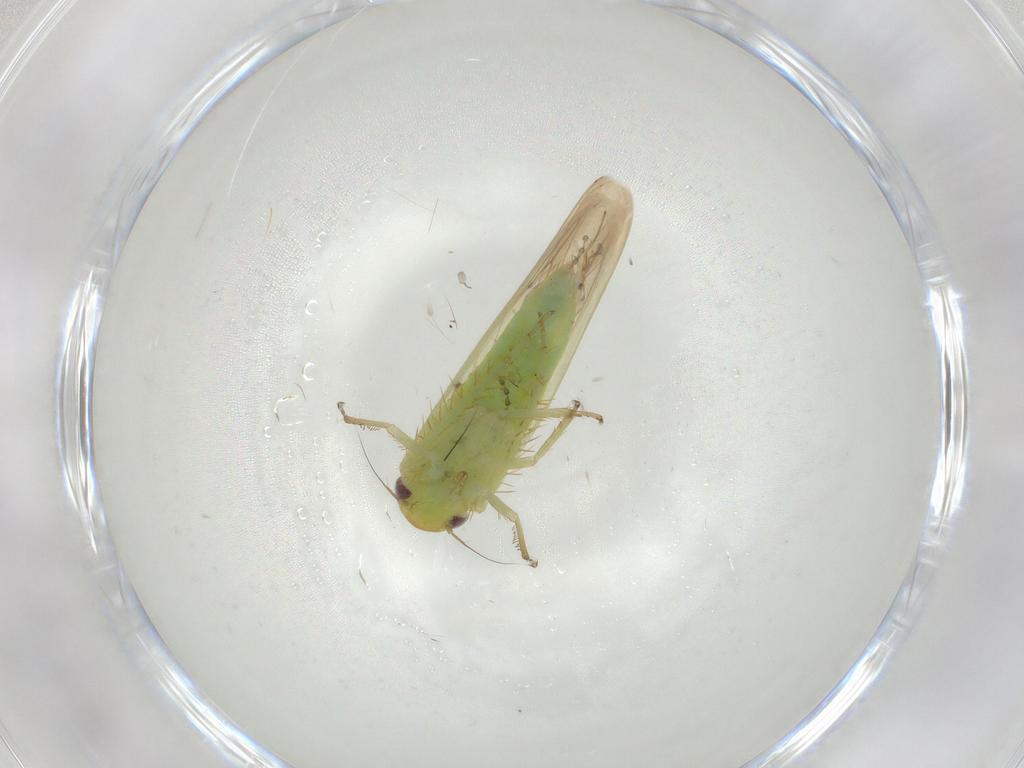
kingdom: Animalia
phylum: Arthropoda
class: Insecta
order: Hemiptera
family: Cicadellidae
